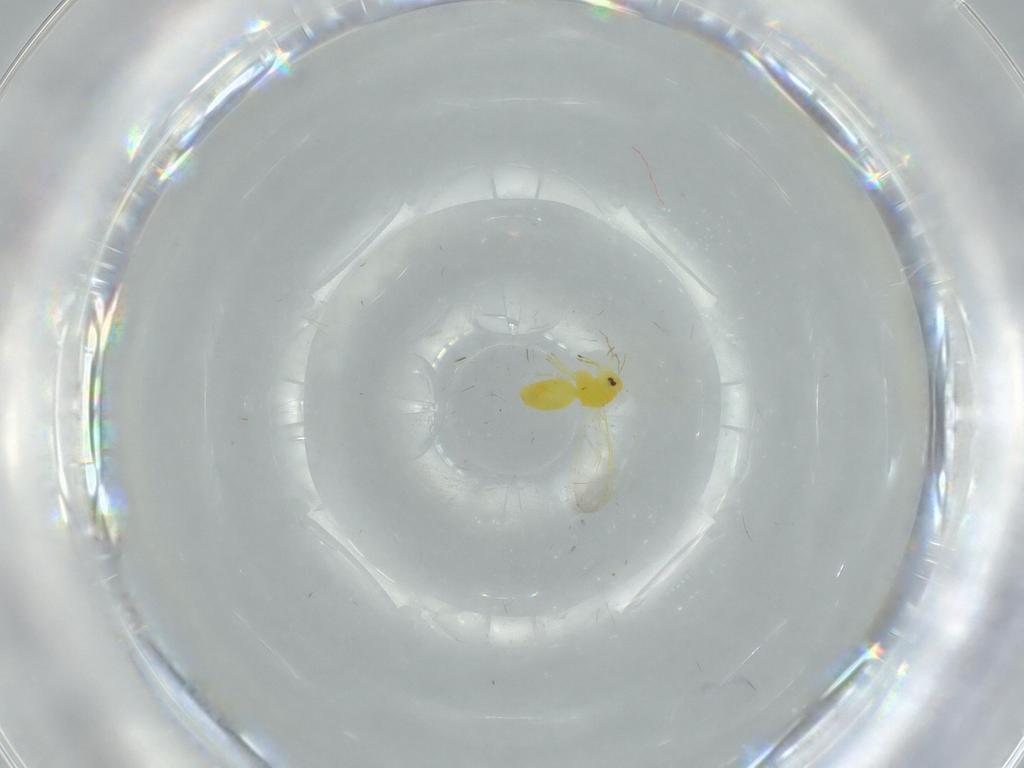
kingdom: Animalia
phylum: Arthropoda
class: Insecta
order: Hemiptera
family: Aleyrodidae
